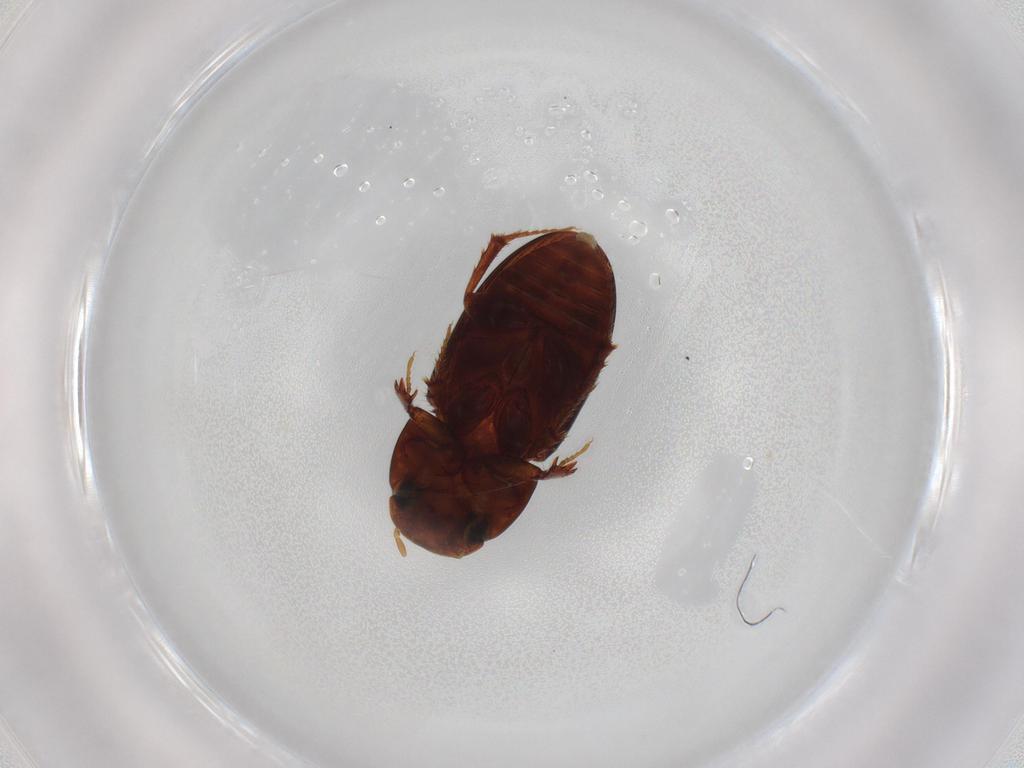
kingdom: Animalia
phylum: Arthropoda
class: Insecta
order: Coleoptera
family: Scarabaeidae
